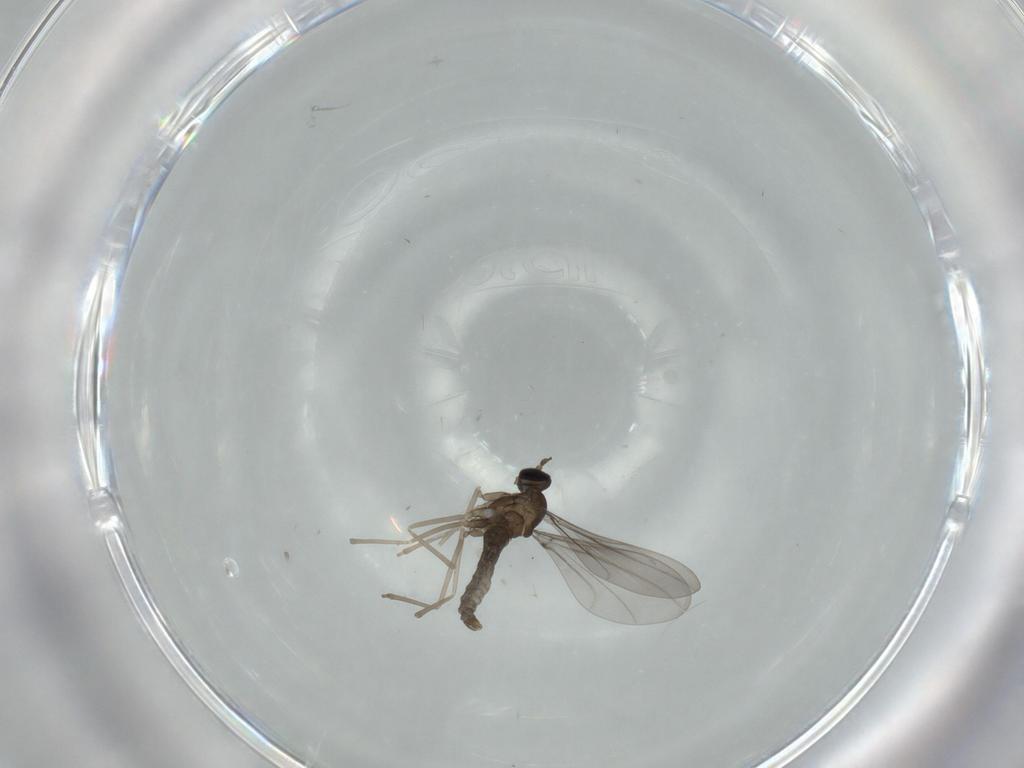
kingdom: Animalia
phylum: Arthropoda
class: Insecta
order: Diptera
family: Cecidomyiidae
